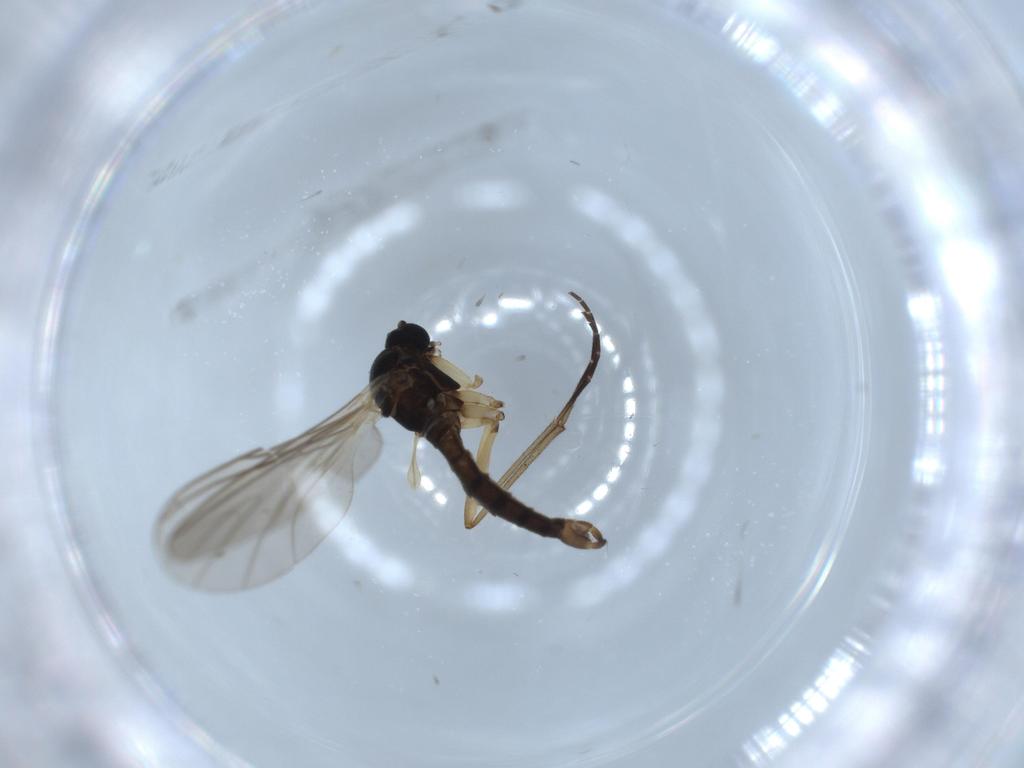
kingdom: Animalia
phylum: Arthropoda
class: Insecta
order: Diptera
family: Sciaridae
